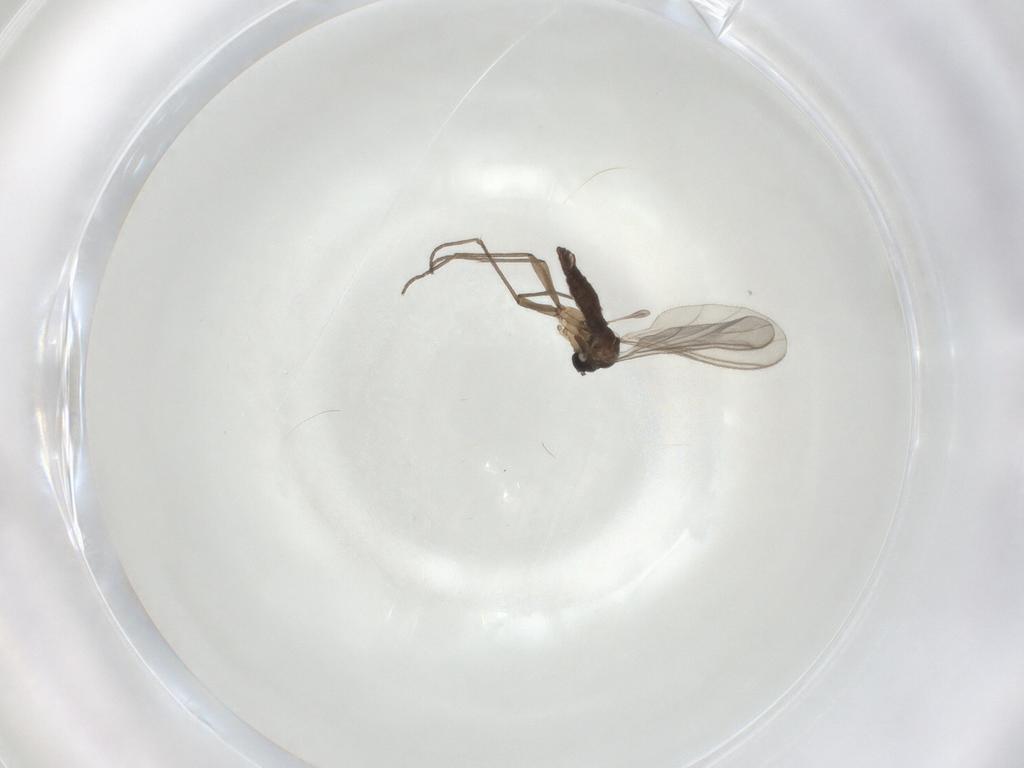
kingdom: Animalia
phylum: Arthropoda
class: Insecta
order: Diptera
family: Sciaridae
